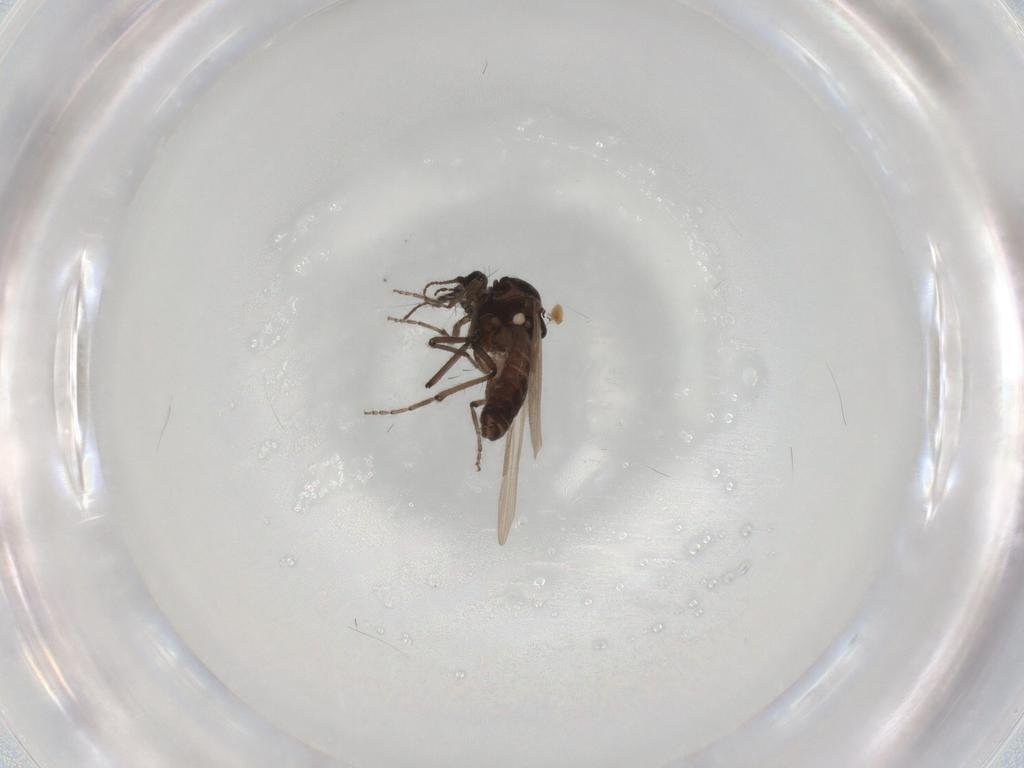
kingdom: Animalia
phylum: Arthropoda
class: Insecta
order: Diptera
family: Ceratopogonidae
